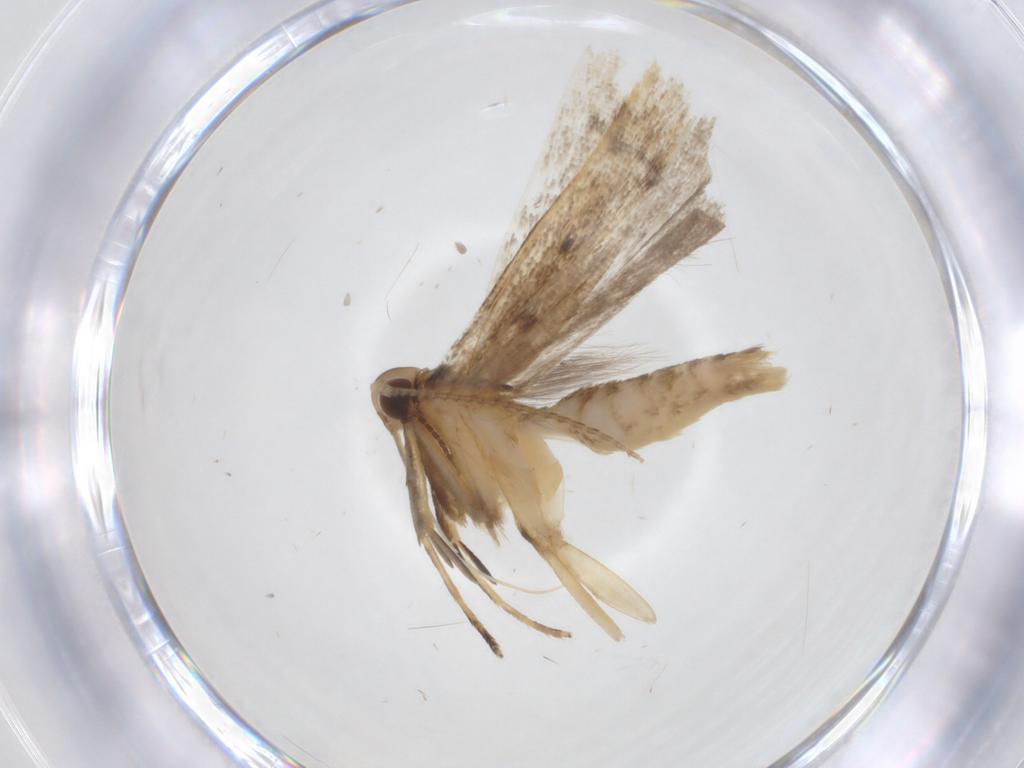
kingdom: Animalia
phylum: Arthropoda
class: Insecta
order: Lepidoptera
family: Gelechiidae
